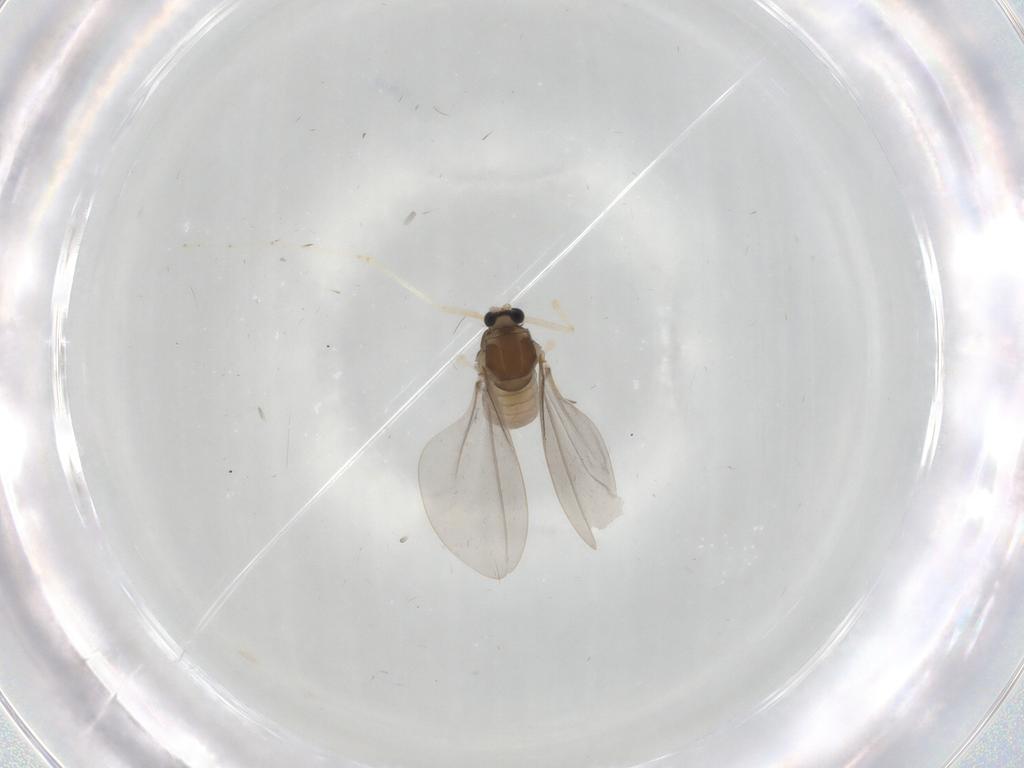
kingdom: Animalia
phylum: Arthropoda
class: Insecta
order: Diptera
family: Cecidomyiidae
